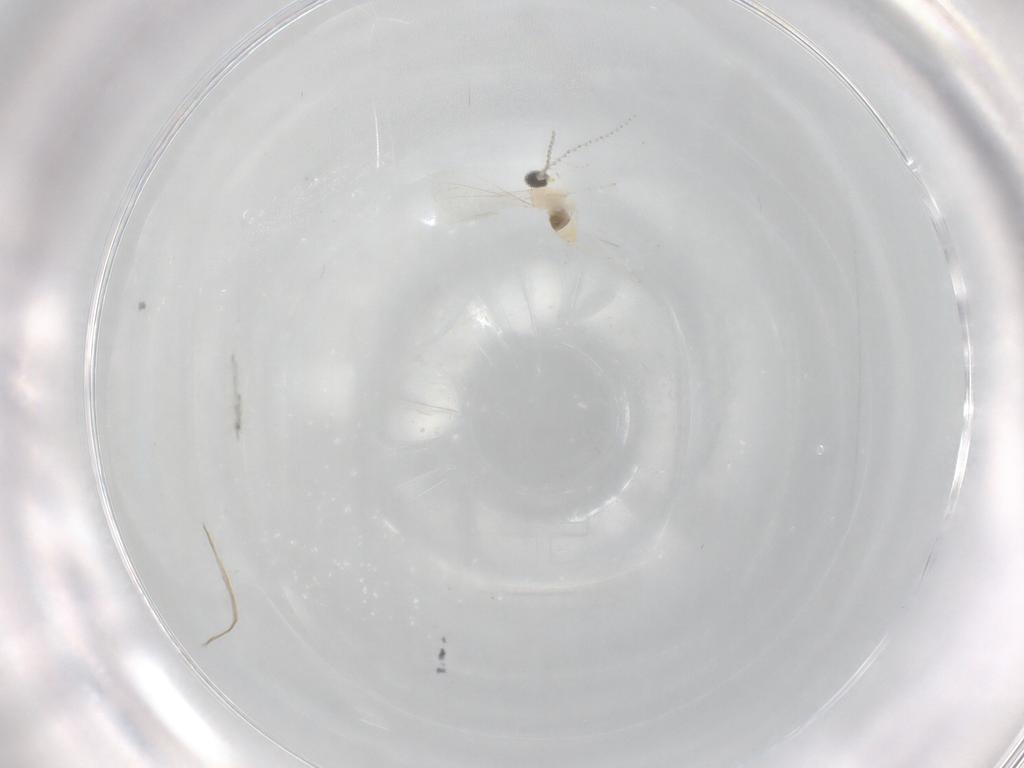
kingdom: Animalia
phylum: Arthropoda
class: Insecta
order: Diptera
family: Cecidomyiidae
